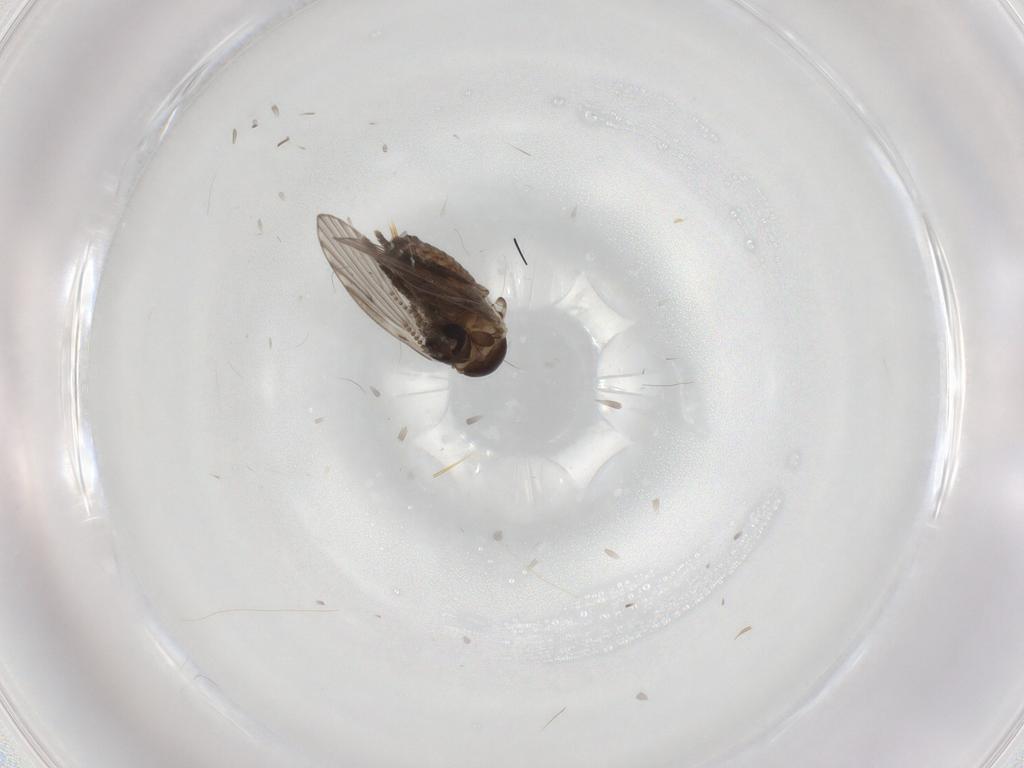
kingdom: Animalia
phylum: Arthropoda
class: Insecta
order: Diptera
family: Psychodidae
